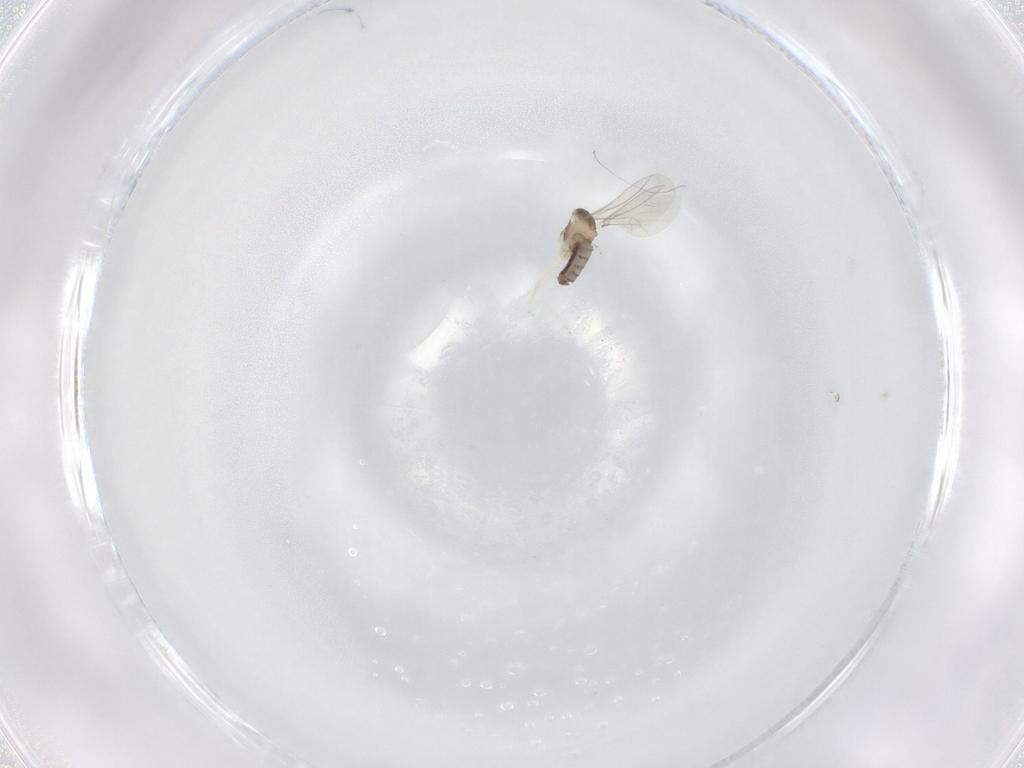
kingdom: Animalia
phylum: Arthropoda
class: Insecta
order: Diptera
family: Cecidomyiidae
